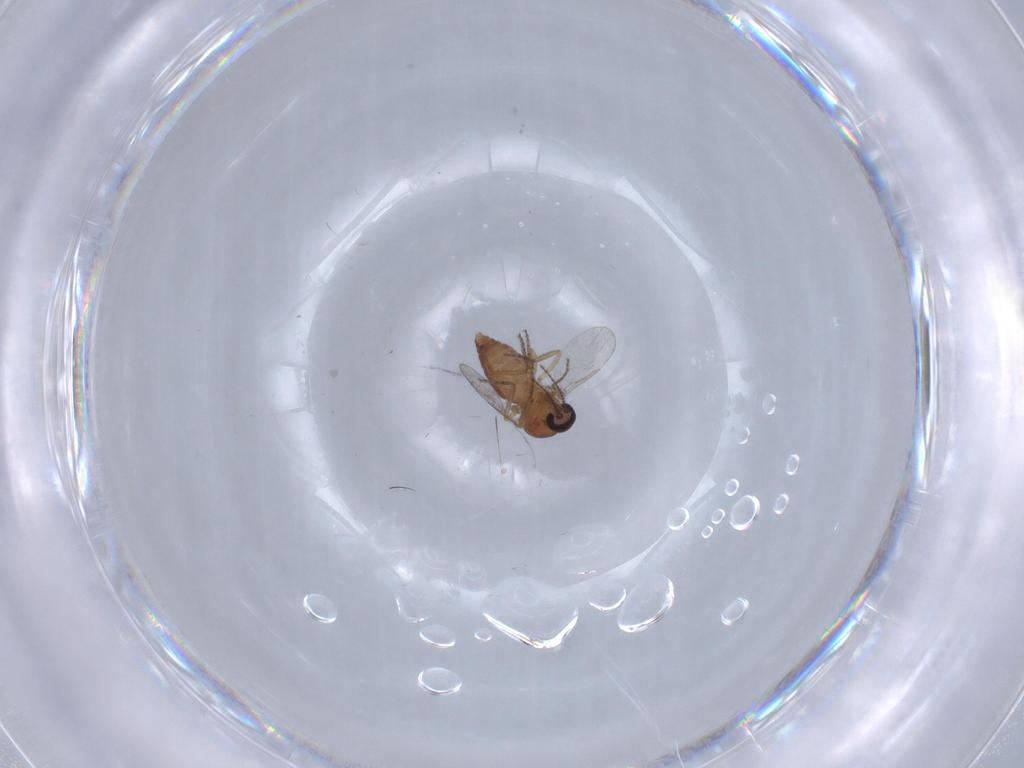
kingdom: Animalia
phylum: Arthropoda
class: Insecta
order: Diptera
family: Ceratopogonidae
